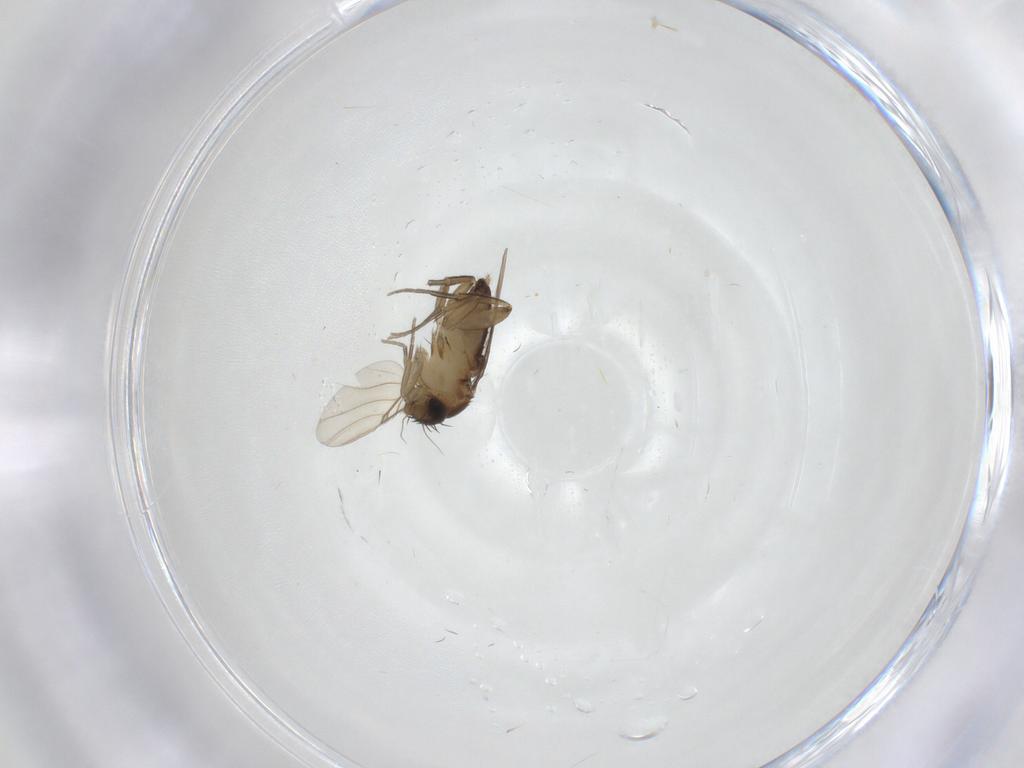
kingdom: Animalia
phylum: Arthropoda
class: Insecta
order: Diptera
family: Phoridae
